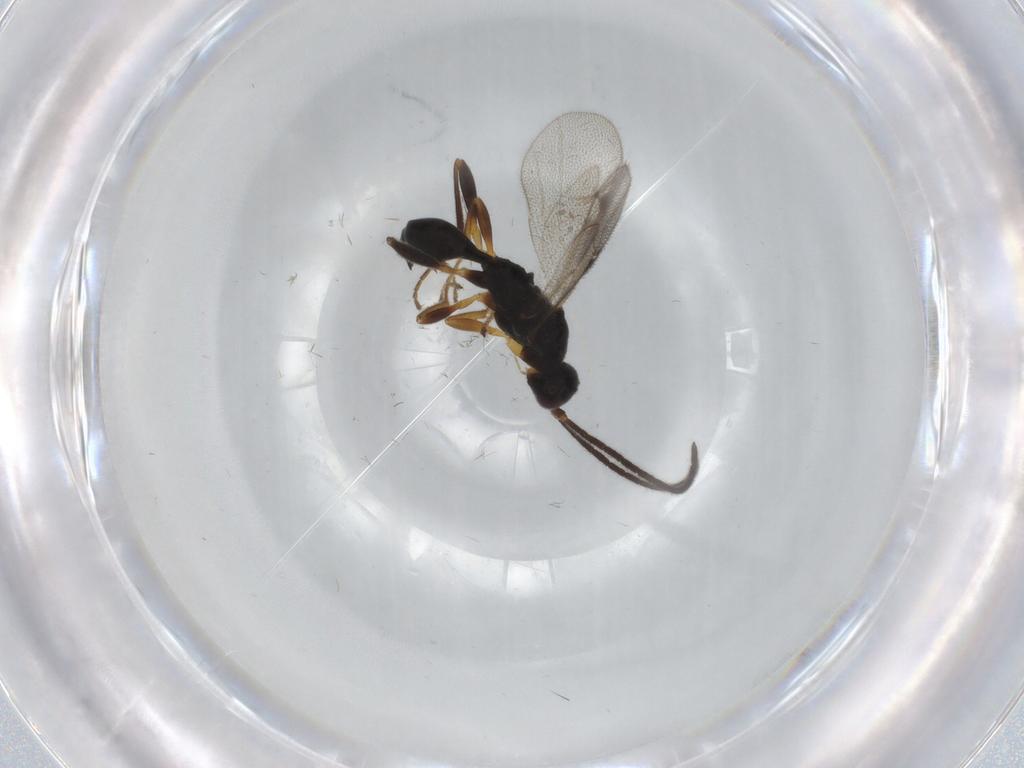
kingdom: Animalia
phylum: Arthropoda
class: Insecta
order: Hymenoptera
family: Proctotrupidae
